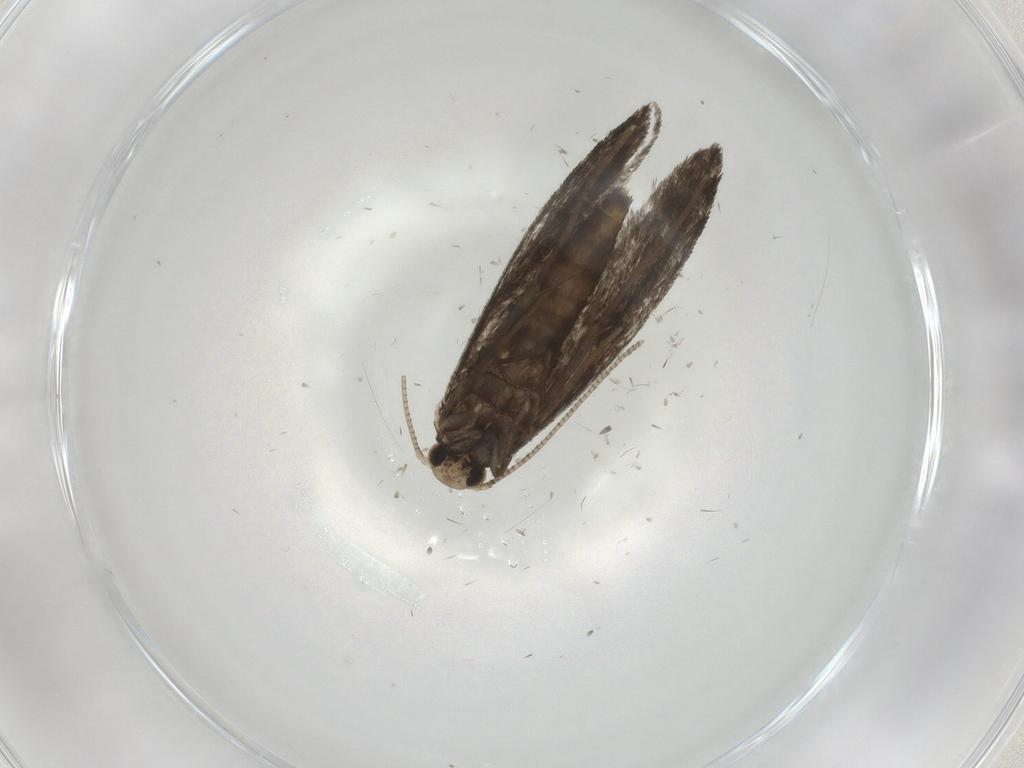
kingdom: Animalia
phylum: Arthropoda
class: Insecta
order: Lepidoptera
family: Nymphalidae
